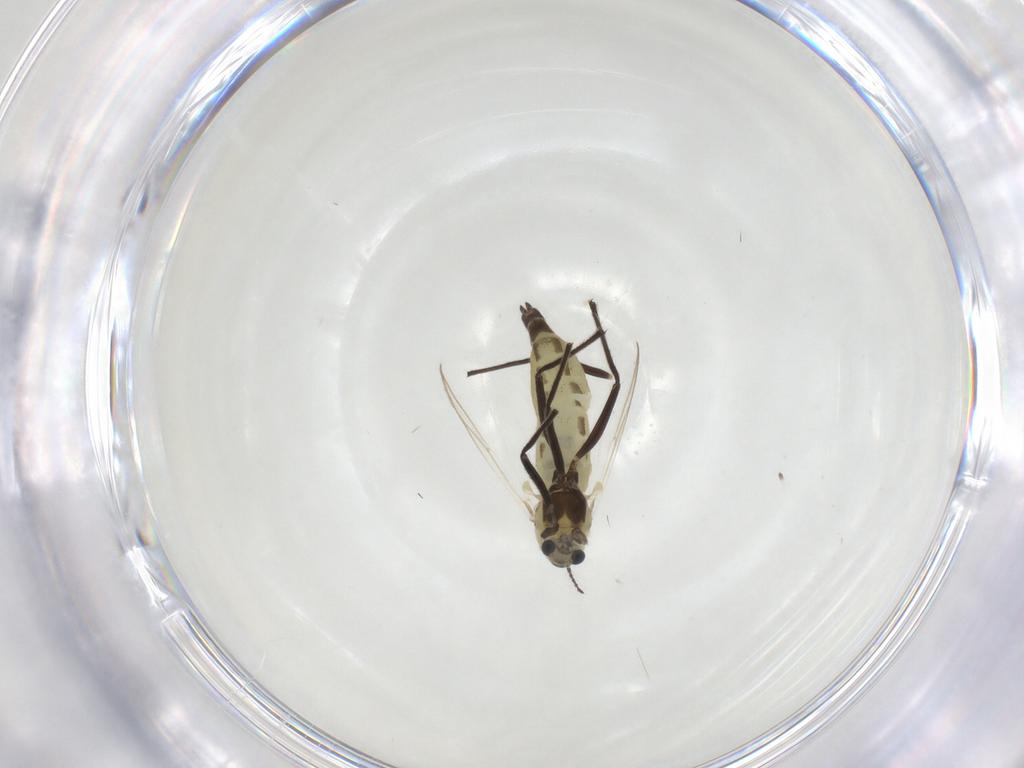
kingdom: Animalia
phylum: Arthropoda
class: Insecta
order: Diptera
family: Chironomidae
